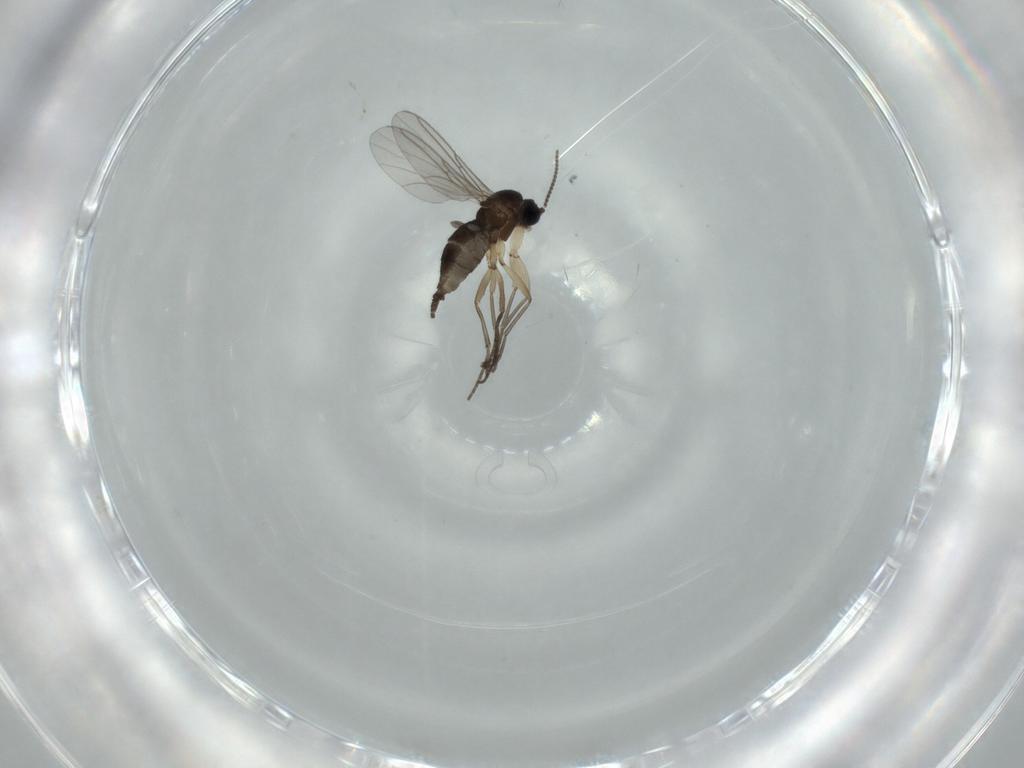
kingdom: Animalia
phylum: Arthropoda
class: Insecta
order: Diptera
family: Sciaridae
